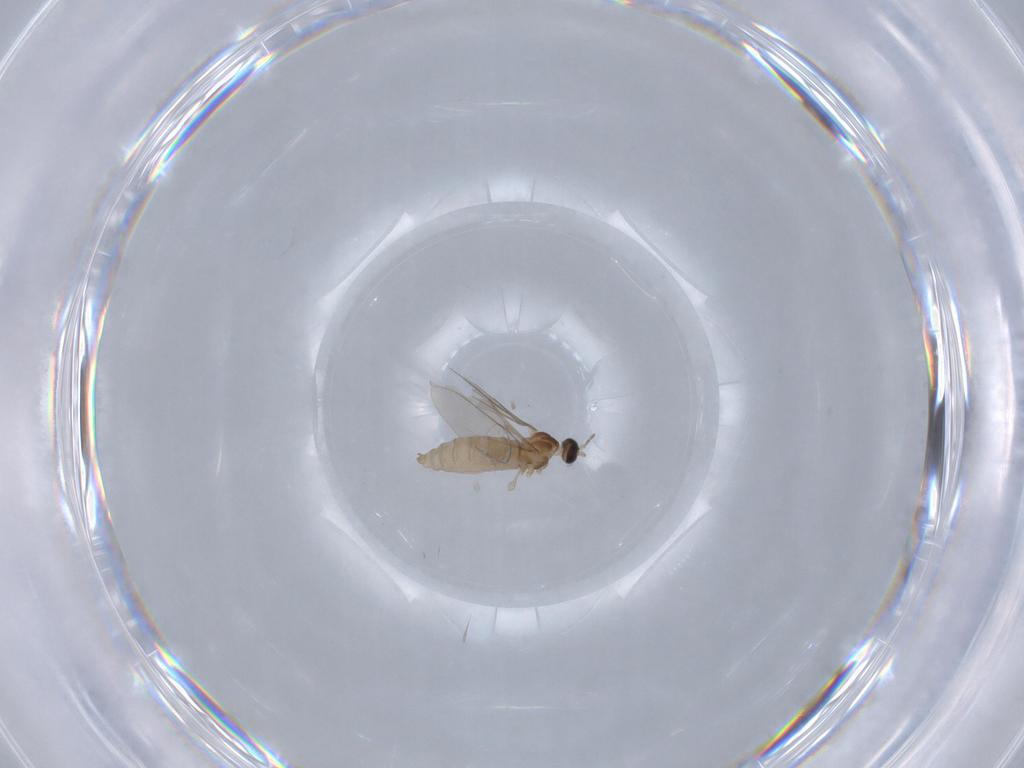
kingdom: Animalia
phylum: Arthropoda
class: Insecta
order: Diptera
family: Cecidomyiidae
